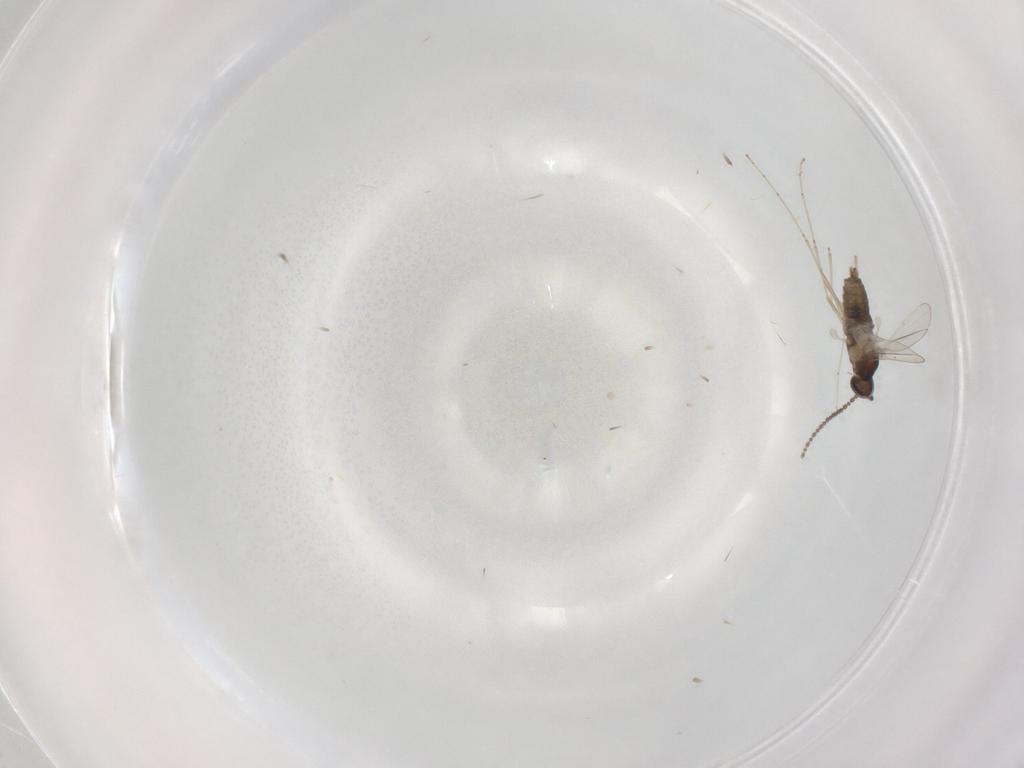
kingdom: Animalia
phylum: Arthropoda
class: Insecta
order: Diptera
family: Cecidomyiidae
